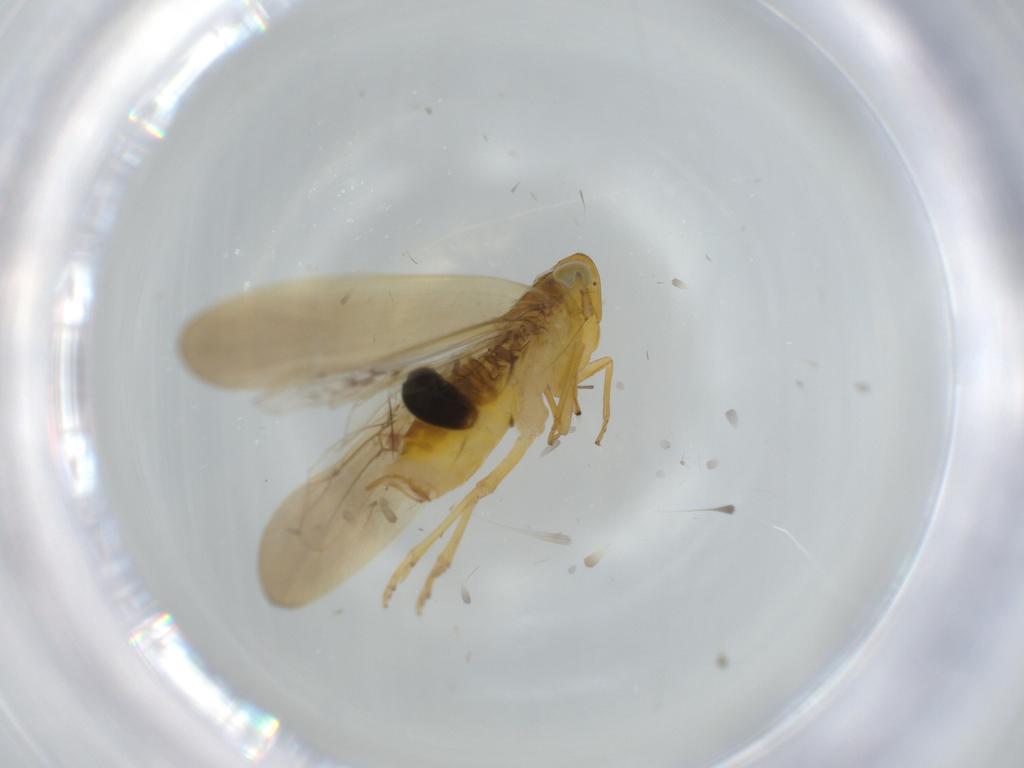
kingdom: Animalia
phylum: Arthropoda
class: Insecta
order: Hemiptera
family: Delphacidae
